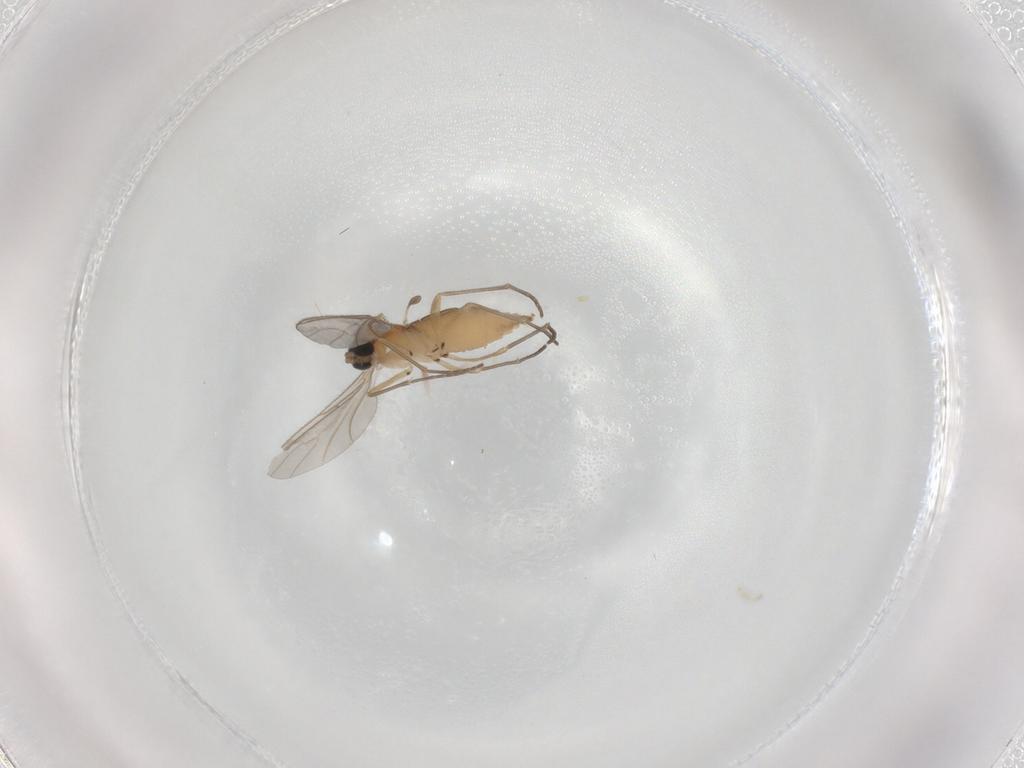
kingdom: Animalia
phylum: Arthropoda
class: Insecta
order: Diptera
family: Sciaridae
